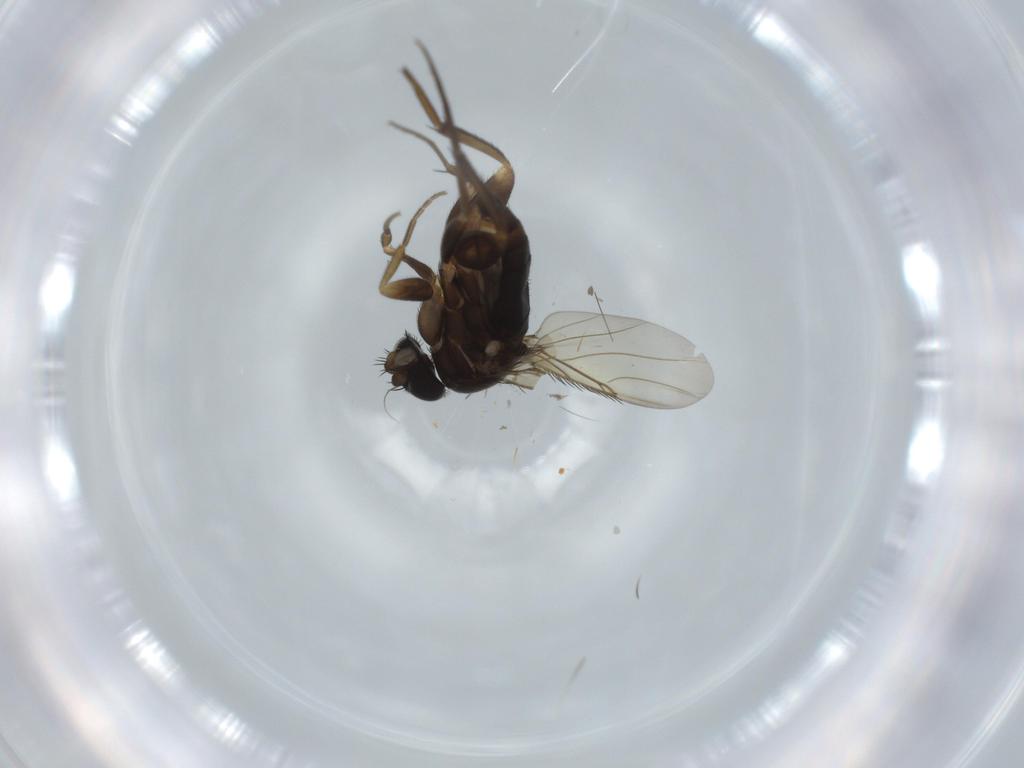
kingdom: Animalia
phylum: Arthropoda
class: Insecta
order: Diptera
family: Phoridae
